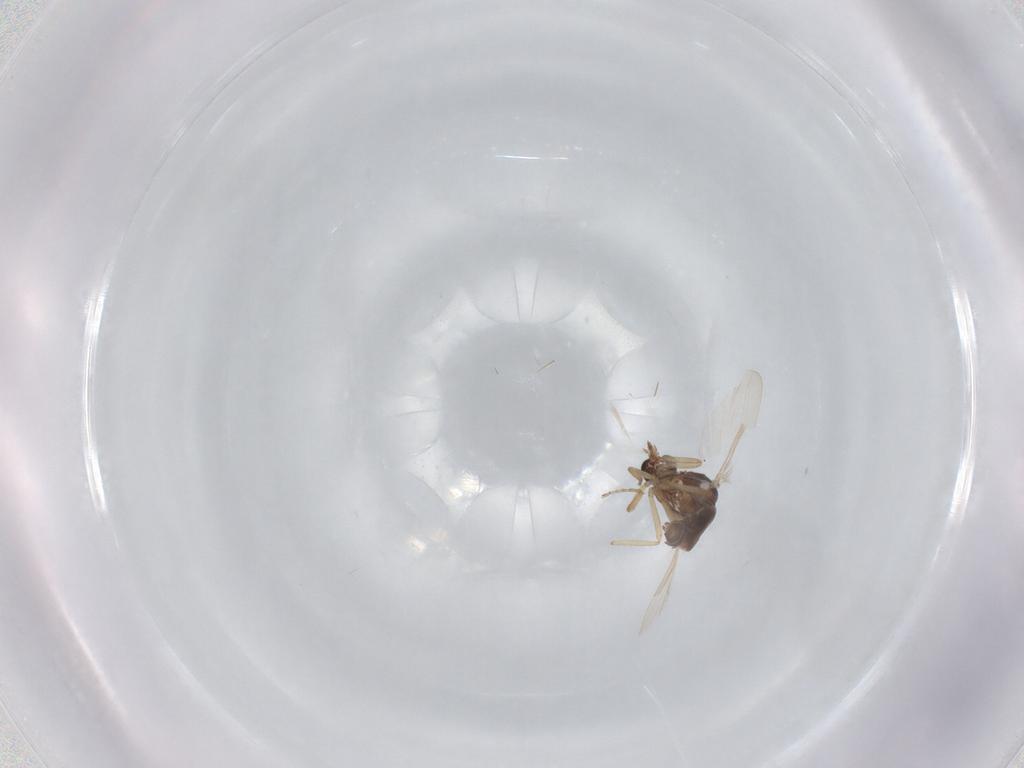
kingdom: Animalia
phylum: Arthropoda
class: Insecta
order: Diptera
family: Ceratopogonidae
